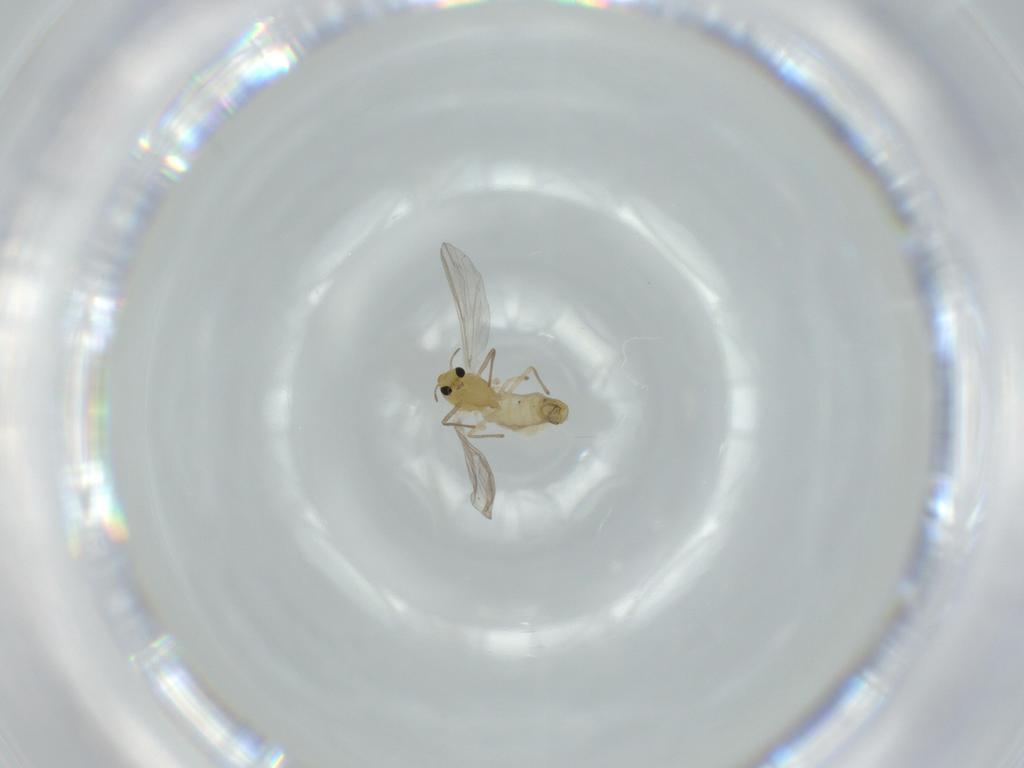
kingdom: Animalia
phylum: Arthropoda
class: Insecta
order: Diptera
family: Chironomidae
